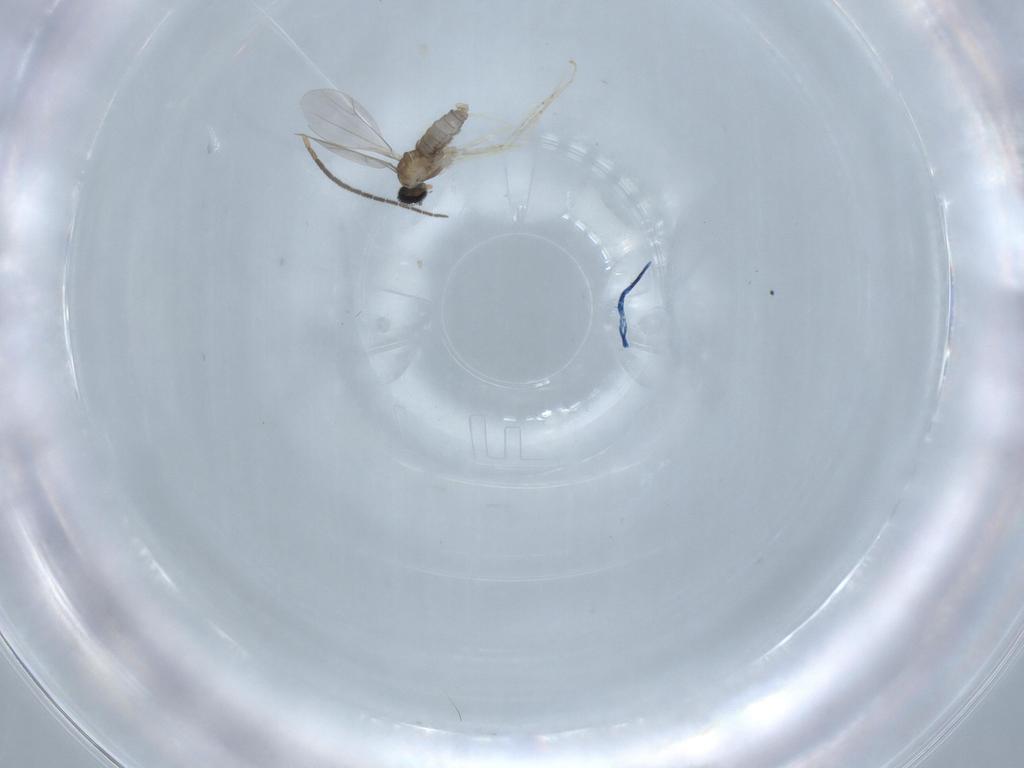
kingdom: Animalia
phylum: Arthropoda
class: Insecta
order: Diptera
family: Cecidomyiidae
